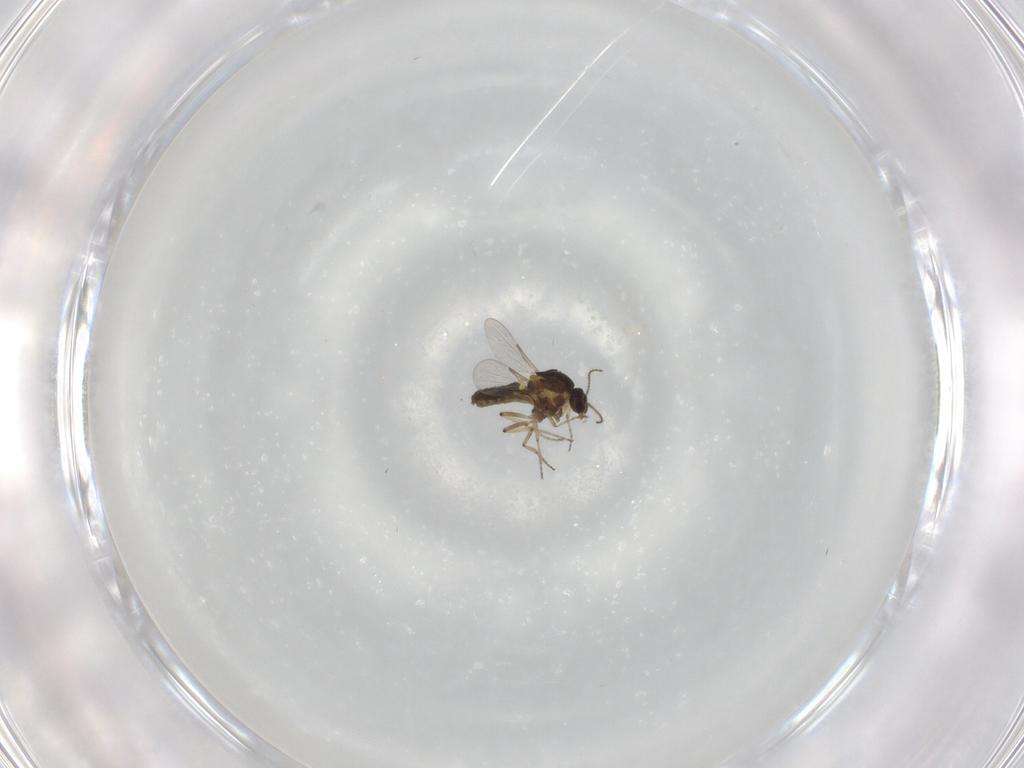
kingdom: Animalia
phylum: Arthropoda
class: Insecta
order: Diptera
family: Ceratopogonidae
